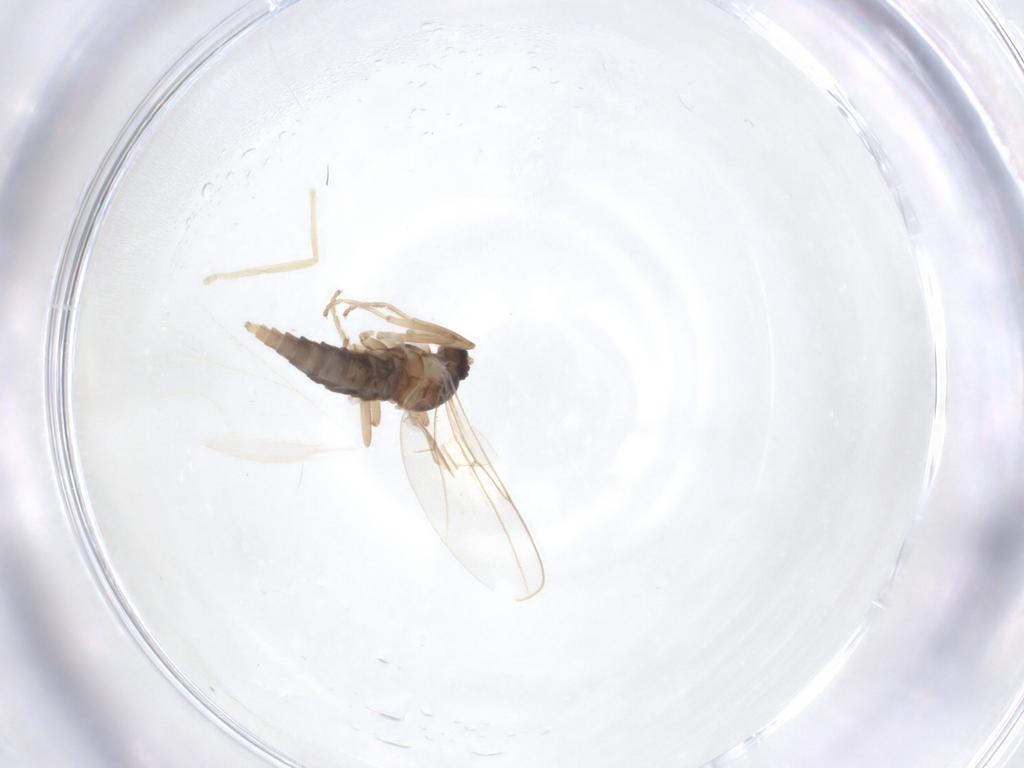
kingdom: Animalia
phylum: Arthropoda
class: Insecta
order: Diptera
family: Cecidomyiidae
